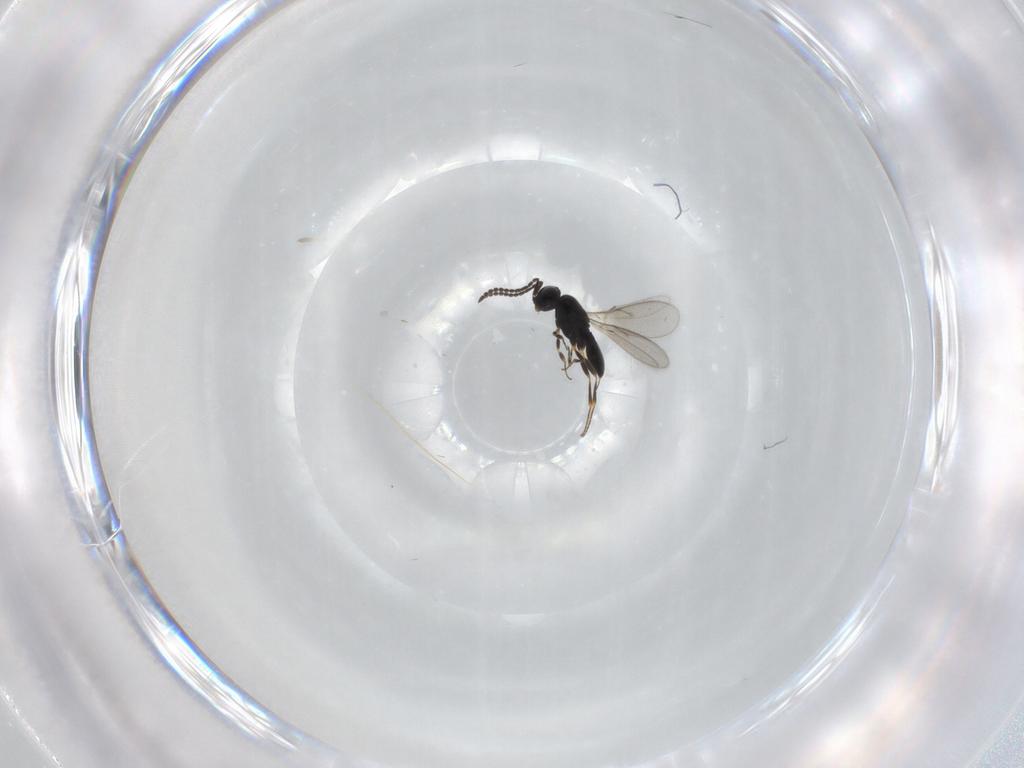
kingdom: Animalia
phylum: Arthropoda
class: Insecta
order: Hymenoptera
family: Scelionidae
